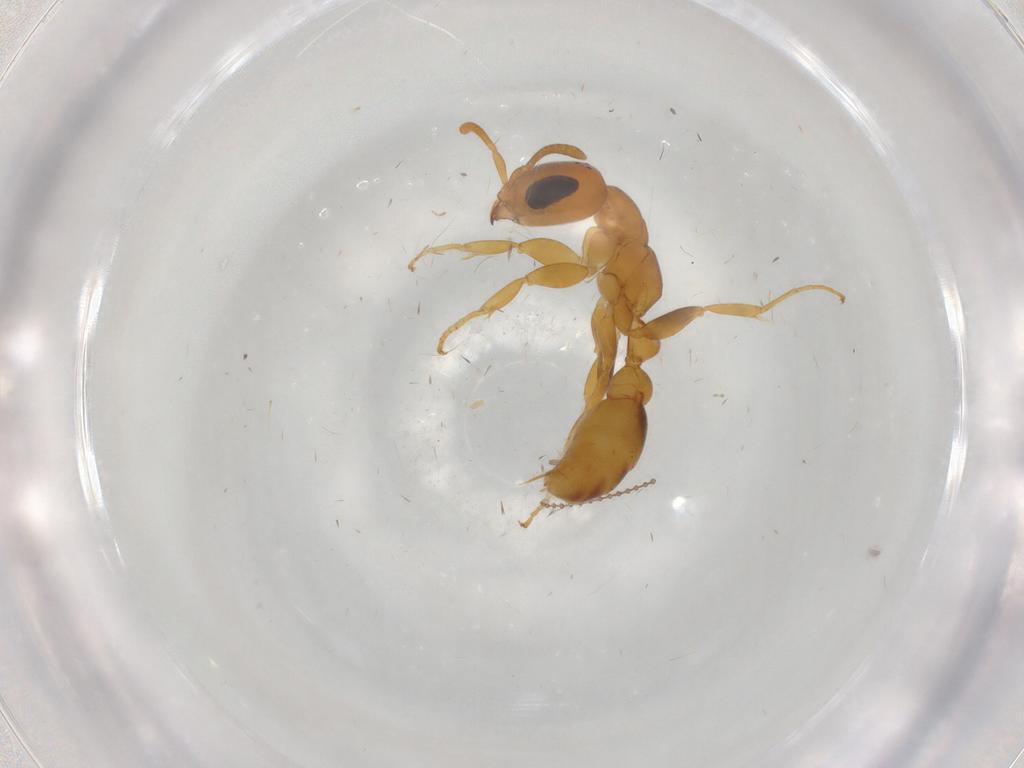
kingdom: Animalia
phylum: Arthropoda
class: Insecta
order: Hymenoptera
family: Formicidae
